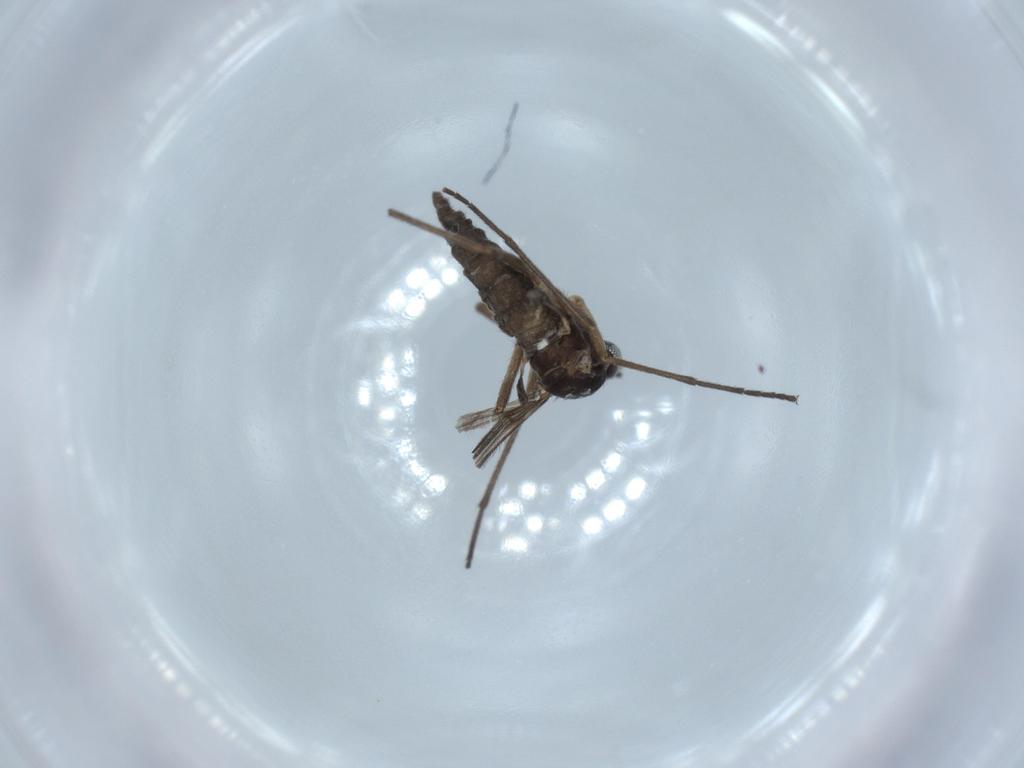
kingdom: Animalia
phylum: Arthropoda
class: Insecta
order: Diptera
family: Sciaridae
